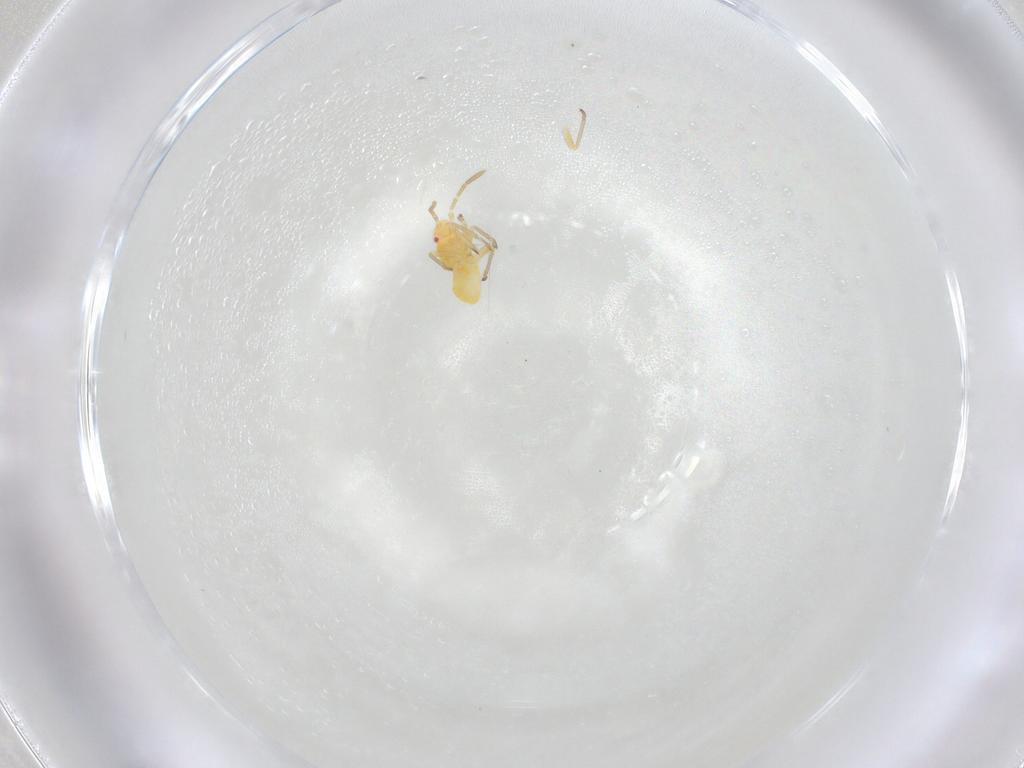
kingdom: Animalia
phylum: Arthropoda
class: Insecta
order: Hemiptera
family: Miridae
